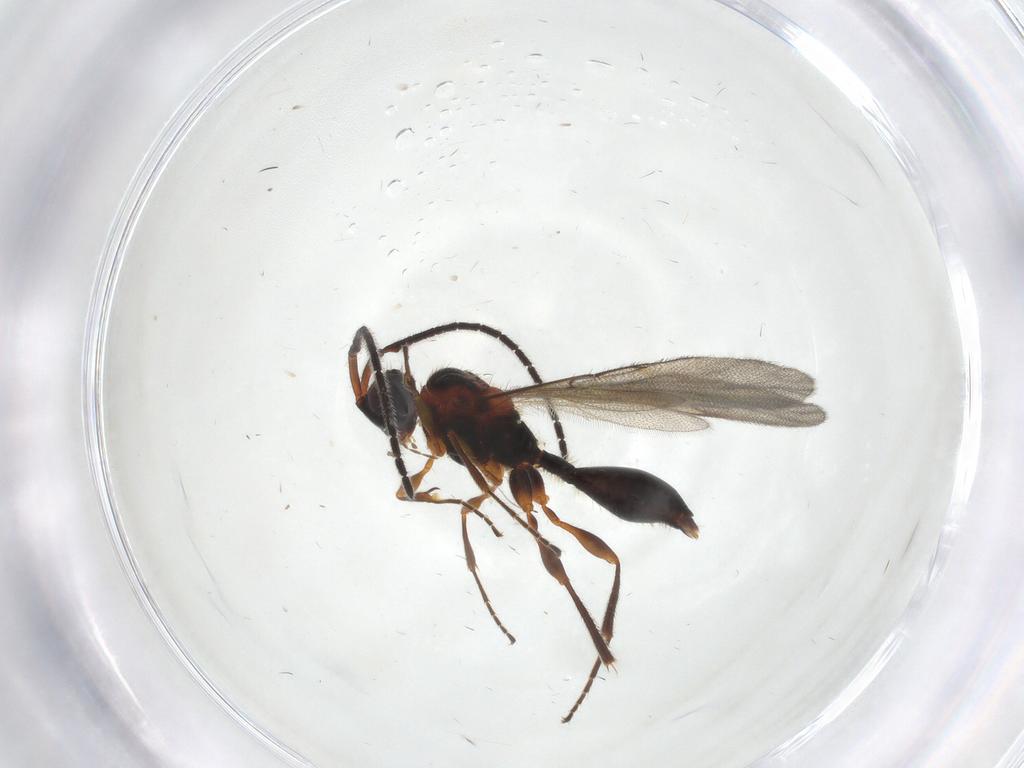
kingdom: Animalia
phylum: Arthropoda
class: Insecta
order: Hymenoptera
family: Diapriidae
